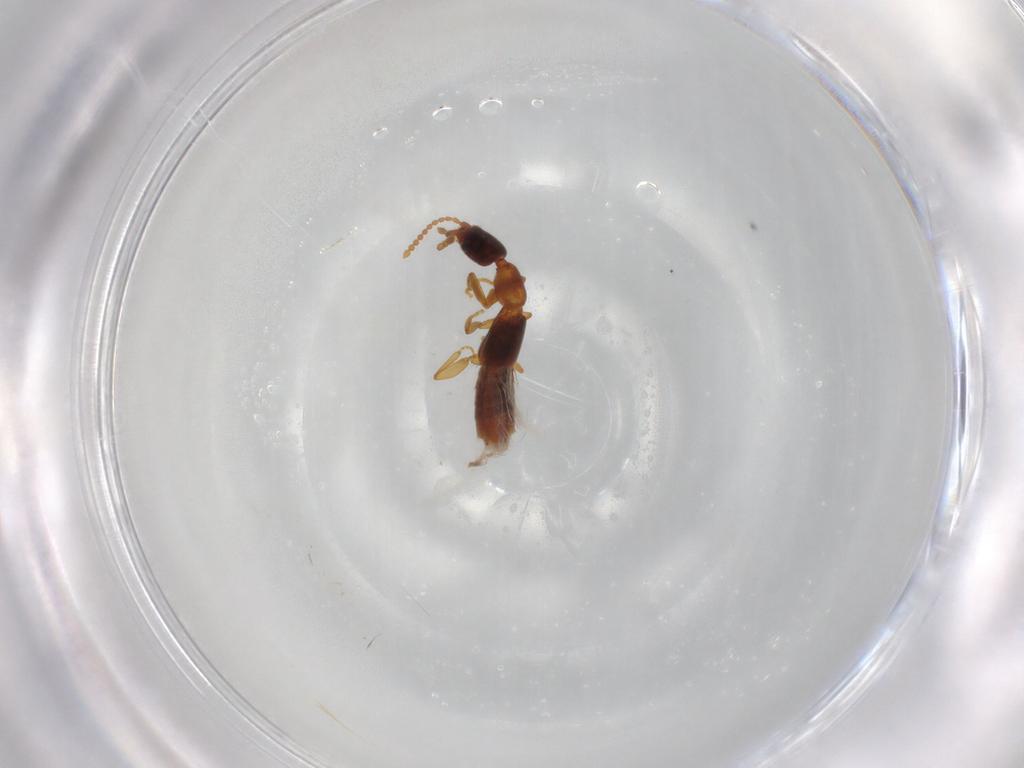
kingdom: Animalia
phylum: Arthropoda
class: Insecta
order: Coleoptera
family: Staphylinidae
